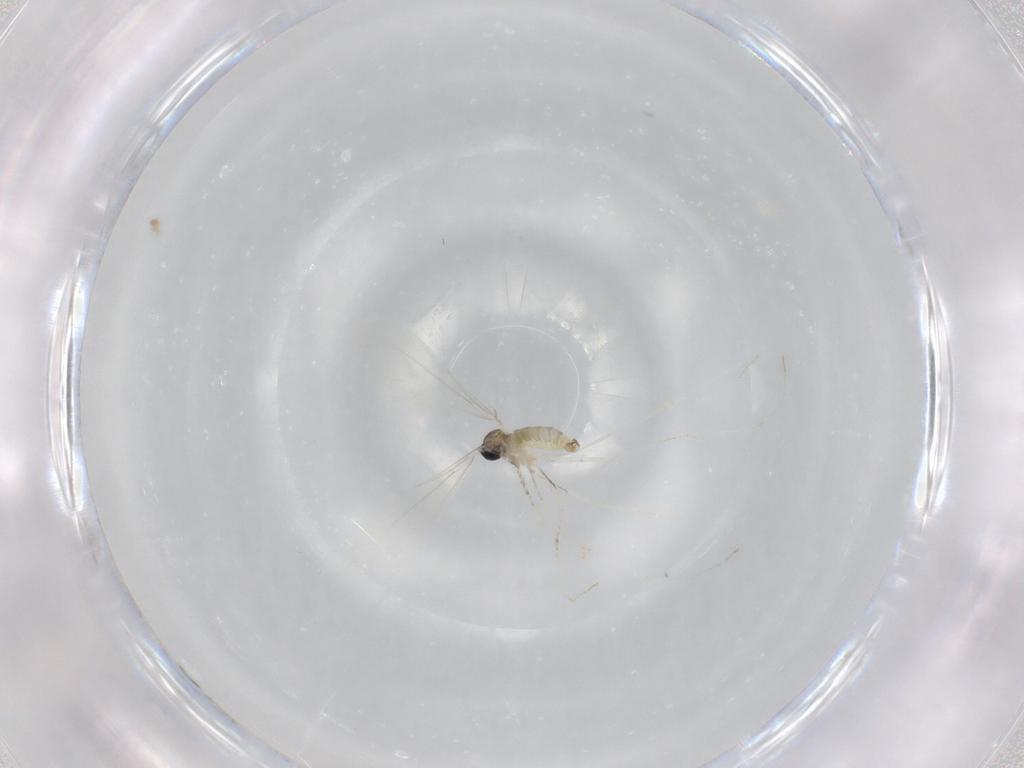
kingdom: Animalia
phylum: Arthropoda
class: Insecta
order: Diptera
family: Cecidomyiidae
